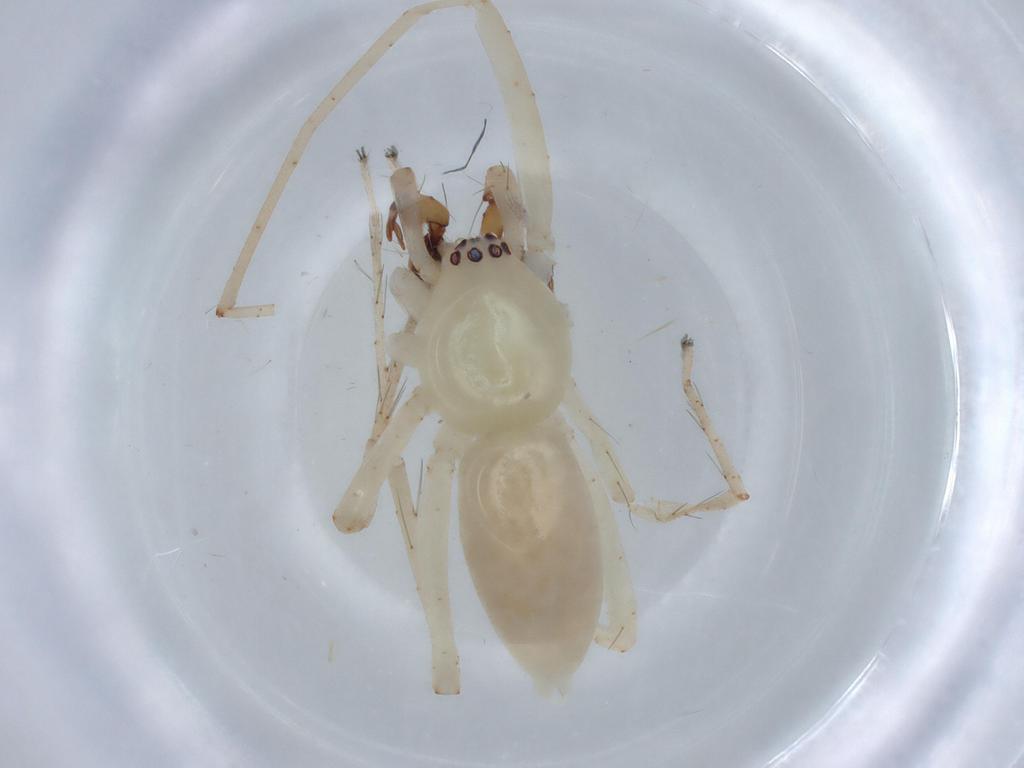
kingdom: Animalia
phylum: Arthropoda
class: Arachnida
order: Araneae
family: Anyphaenidae
